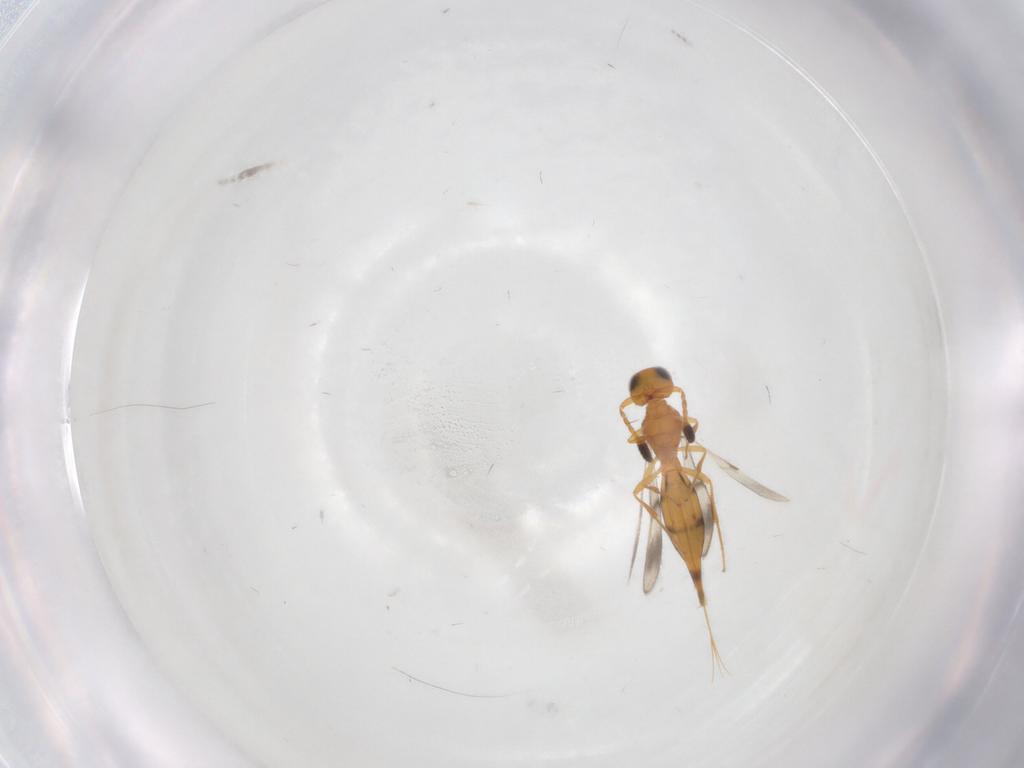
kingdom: Animalia
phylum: Arthropoda
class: Insecta
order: Hymenoptera
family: Scelionidae
